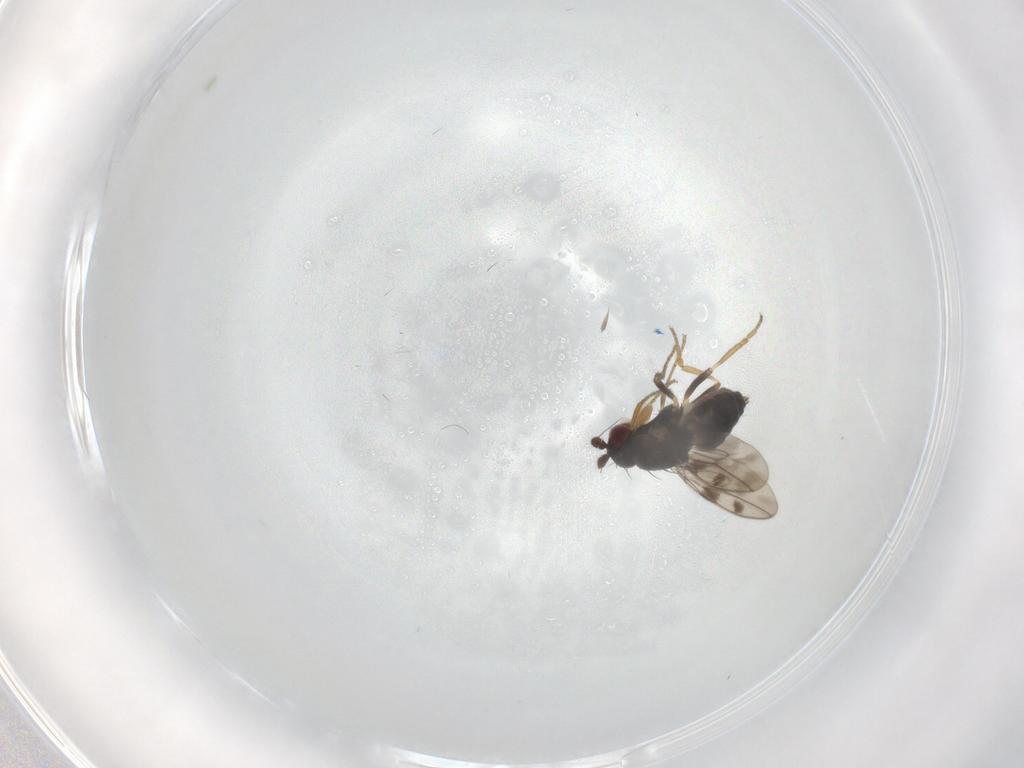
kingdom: Animalia
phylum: Arthropoda
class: Insecta
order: Diptera
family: Sphaeroceridae
